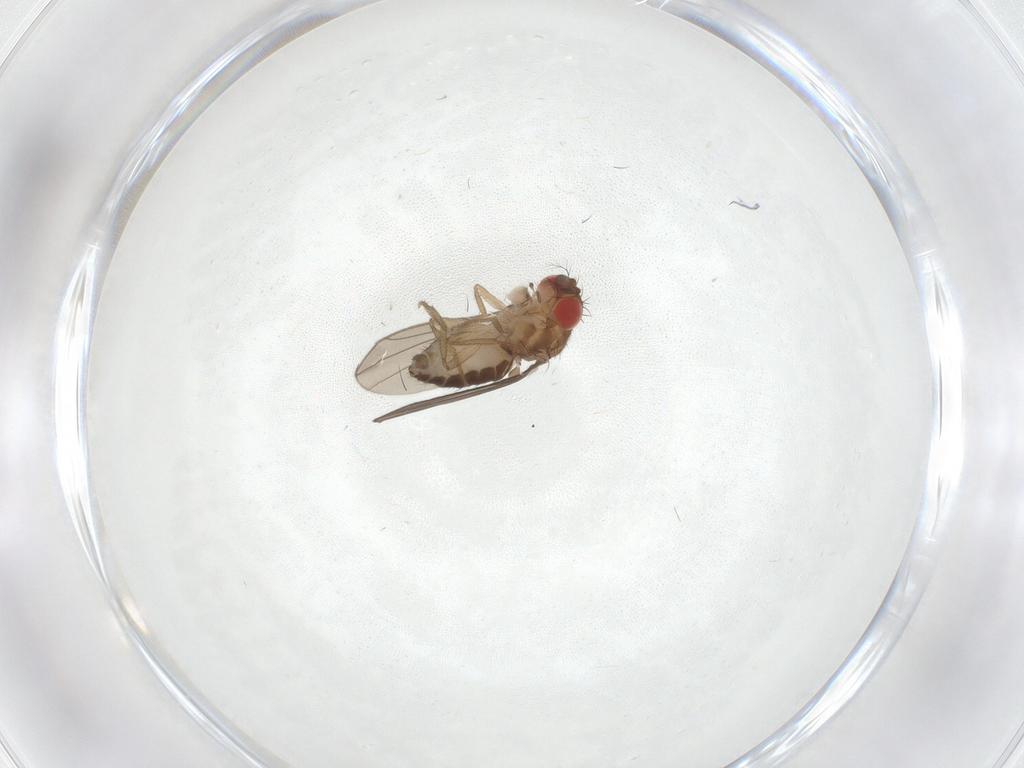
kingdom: Animalia
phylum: Arthropoda
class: Insecta
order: Diptera
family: Drosophilidae
